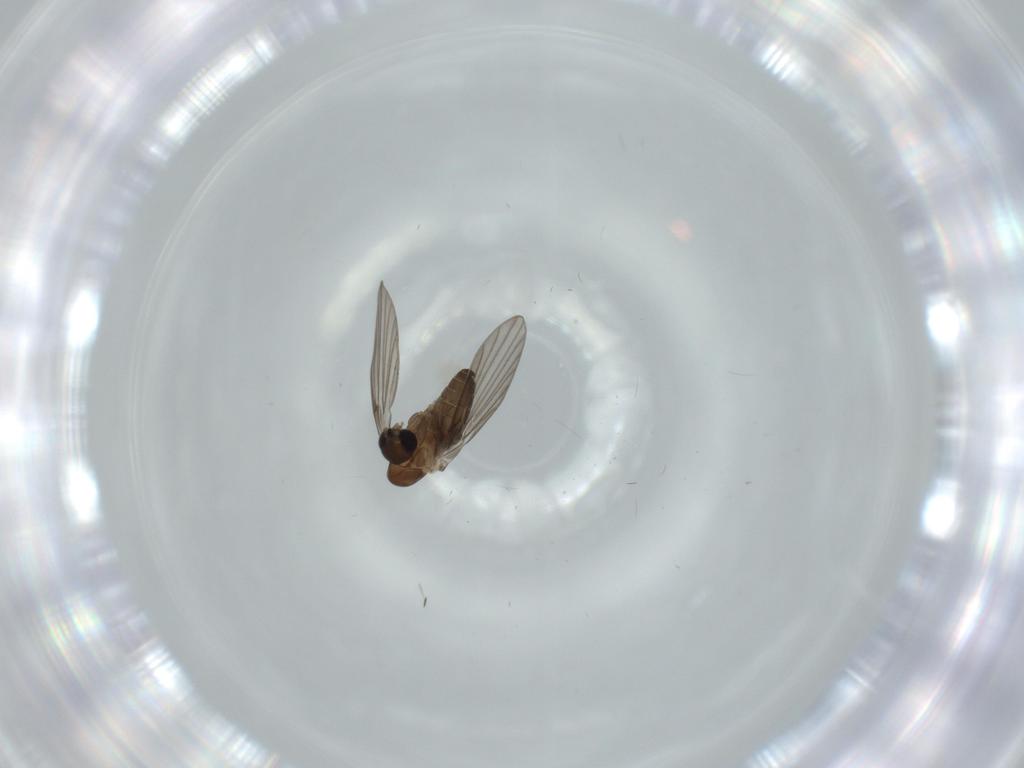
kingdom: Animalia
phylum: Arthropoda
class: Insecta
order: Diptera
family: Psychodidae
